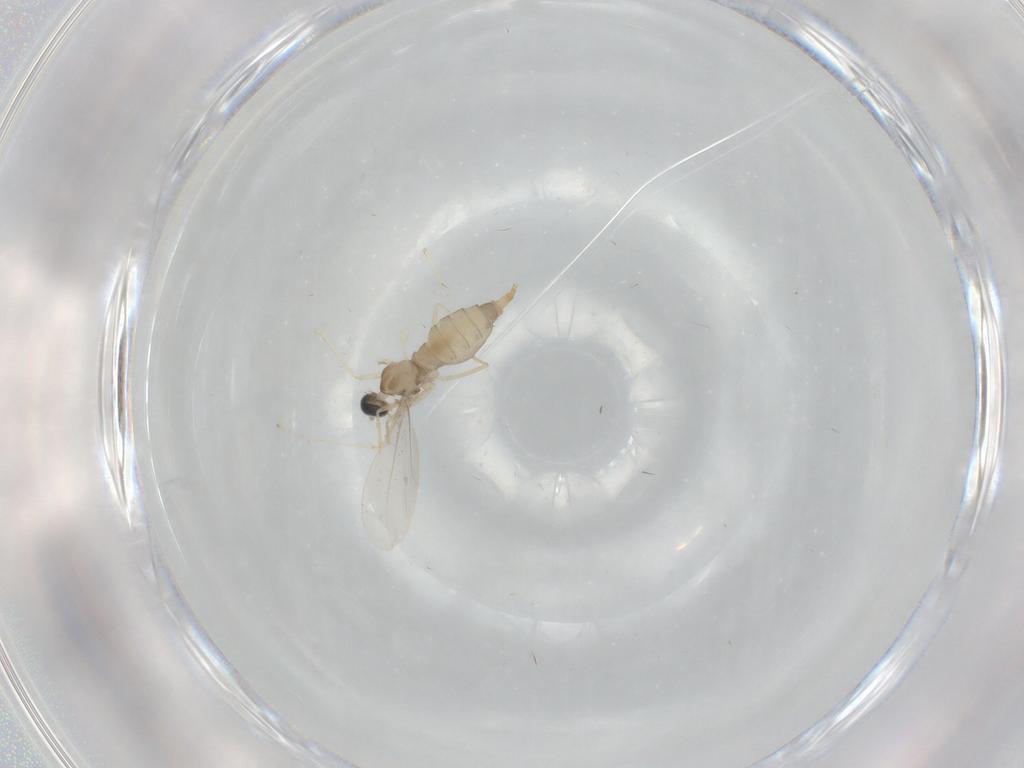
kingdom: Animalia
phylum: Arthropoda
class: Insecta
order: Diptera
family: Cecidomyiidae
